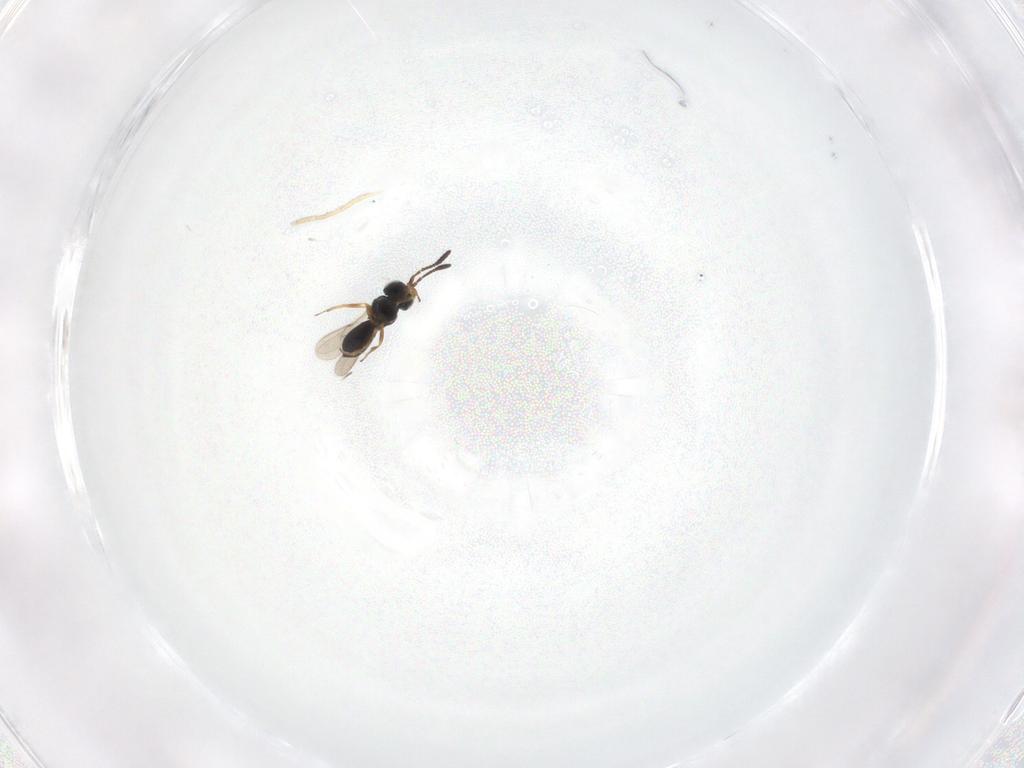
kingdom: Animalia
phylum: Arthropoda
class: Insecta
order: Hymenoptera
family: Scelionidae
